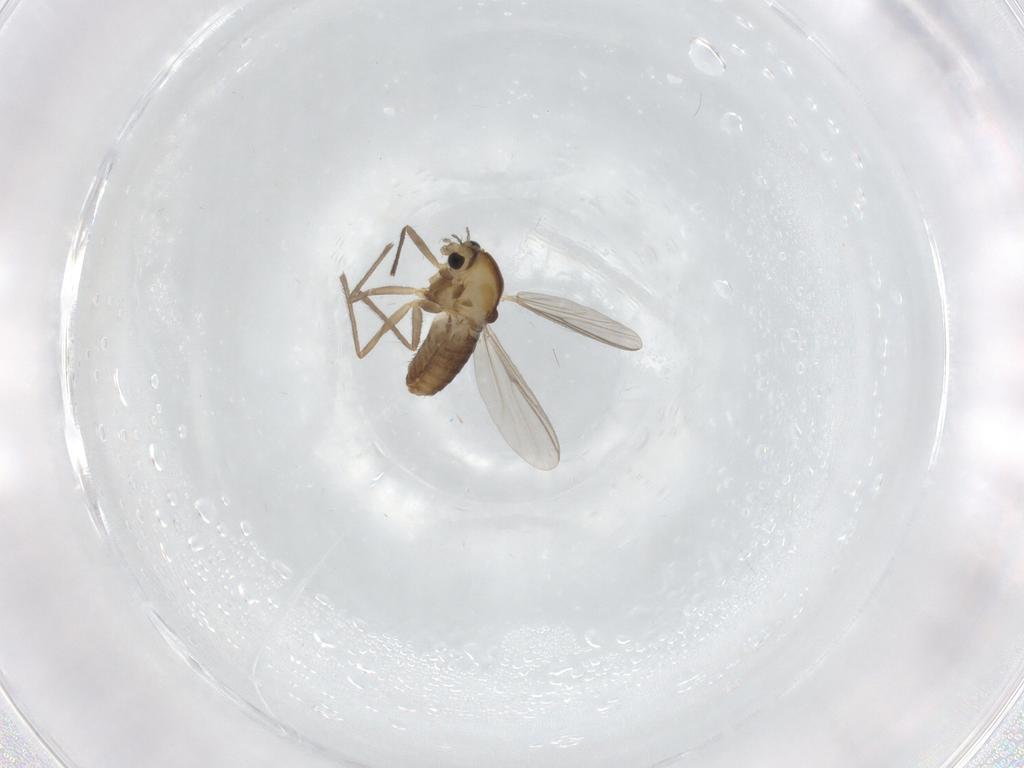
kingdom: Animalia
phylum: Arthropoda
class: Insecta
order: Diptera
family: Chironomidae
